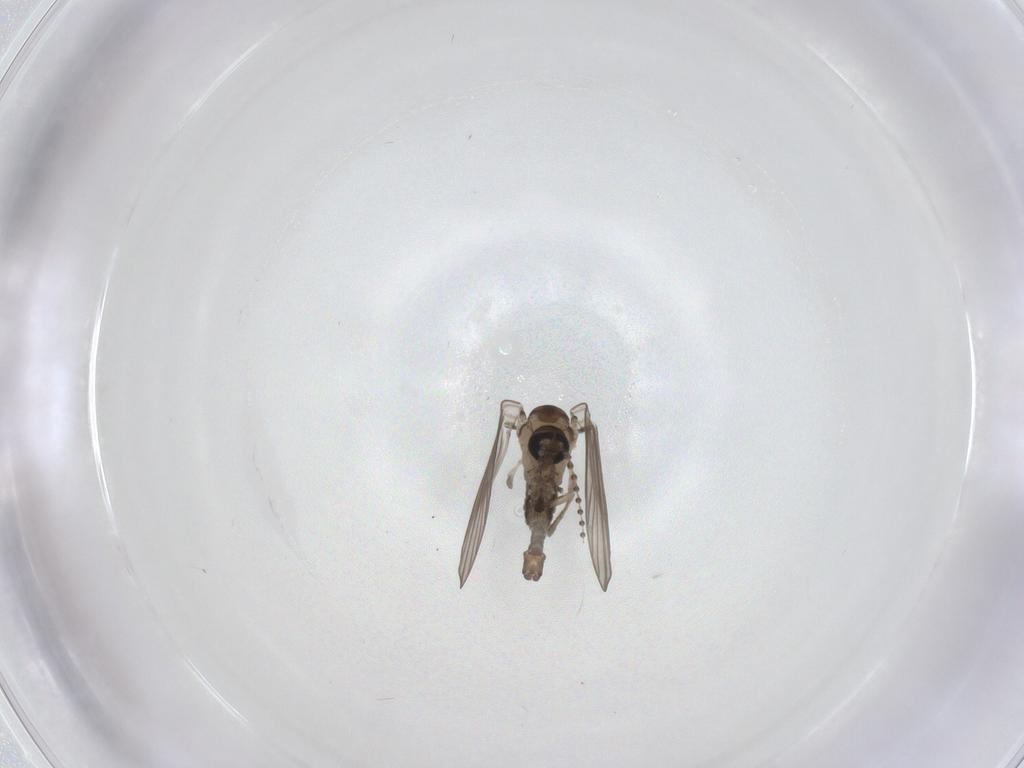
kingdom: Animalia
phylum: Arthropoda
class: Insecta
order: Diptera
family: Psychodidae
